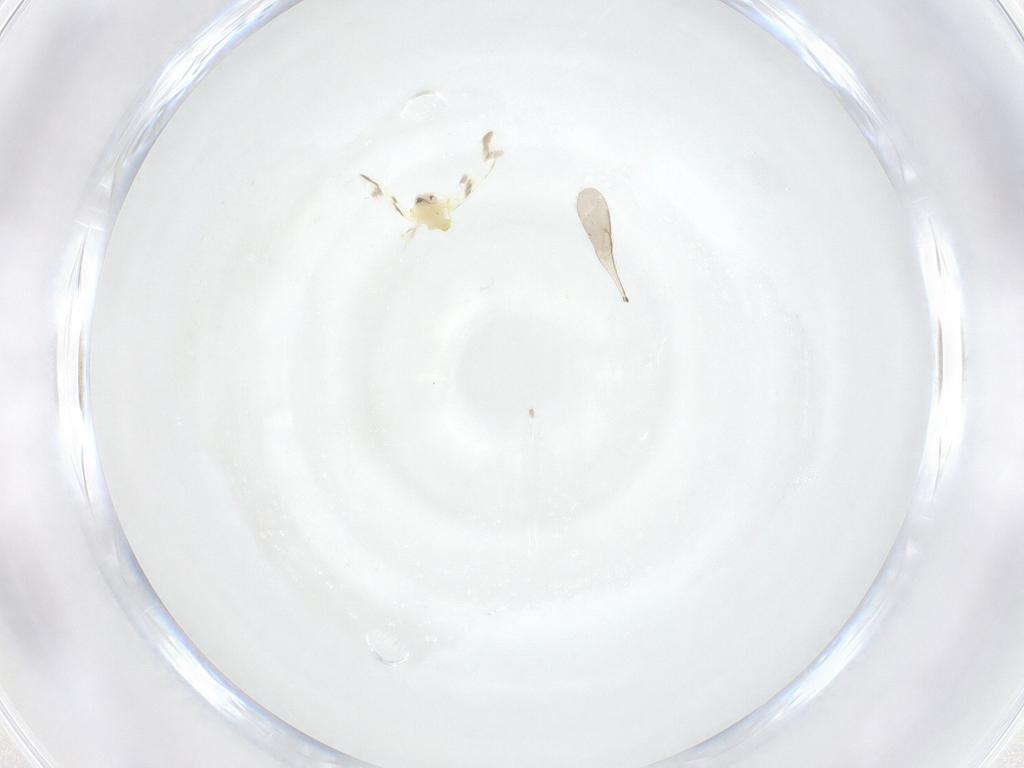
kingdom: Animalia
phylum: Arthropoda
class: Insecta
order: Hemiptera
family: Aleyrodidae
